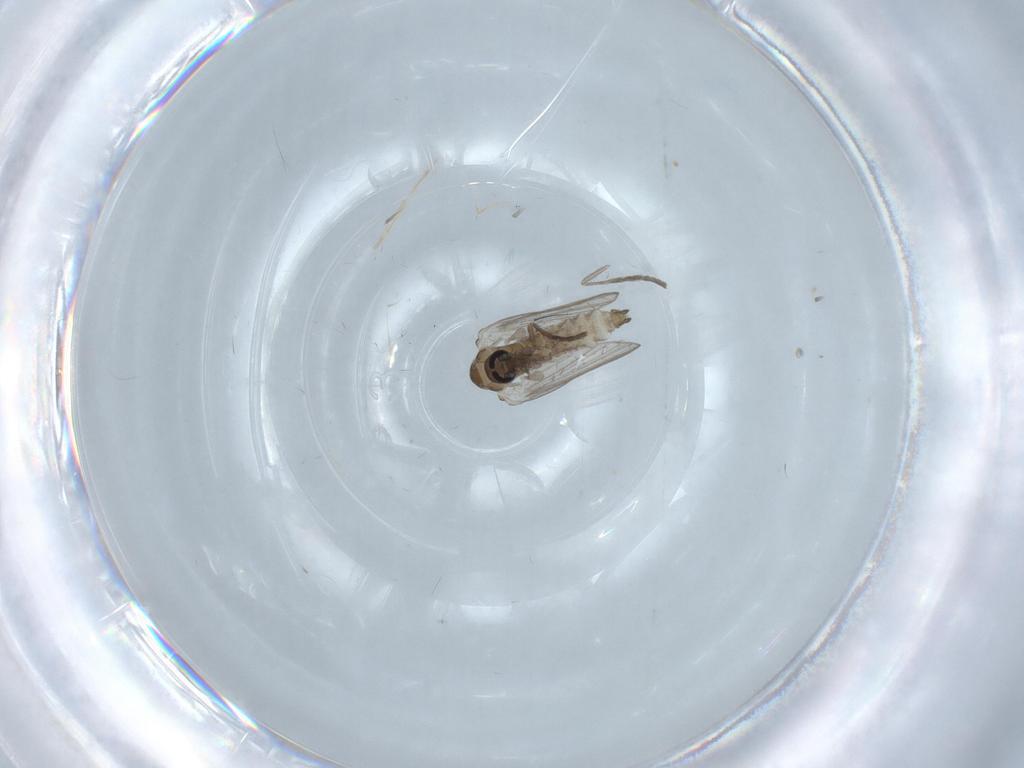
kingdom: Animalia
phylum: Arthropoda
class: Insecta
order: Diptera
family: Psychodidae
